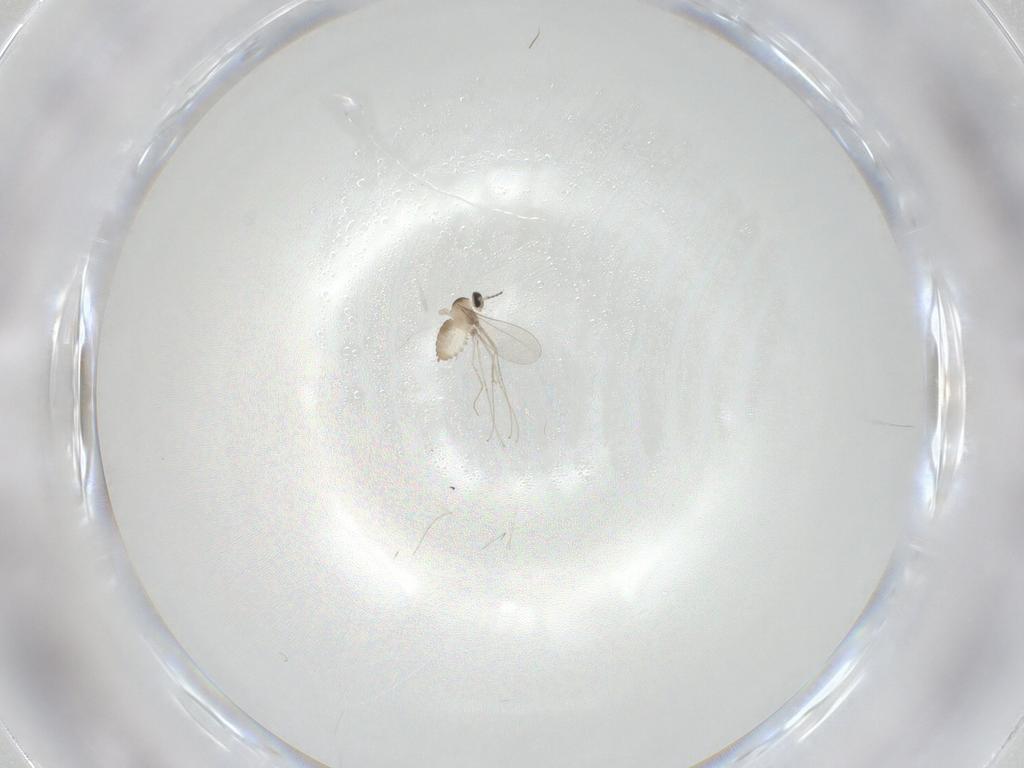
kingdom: Animalia
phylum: Arthropoda
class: Insecta
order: Diptera
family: Cecidomyiidae
